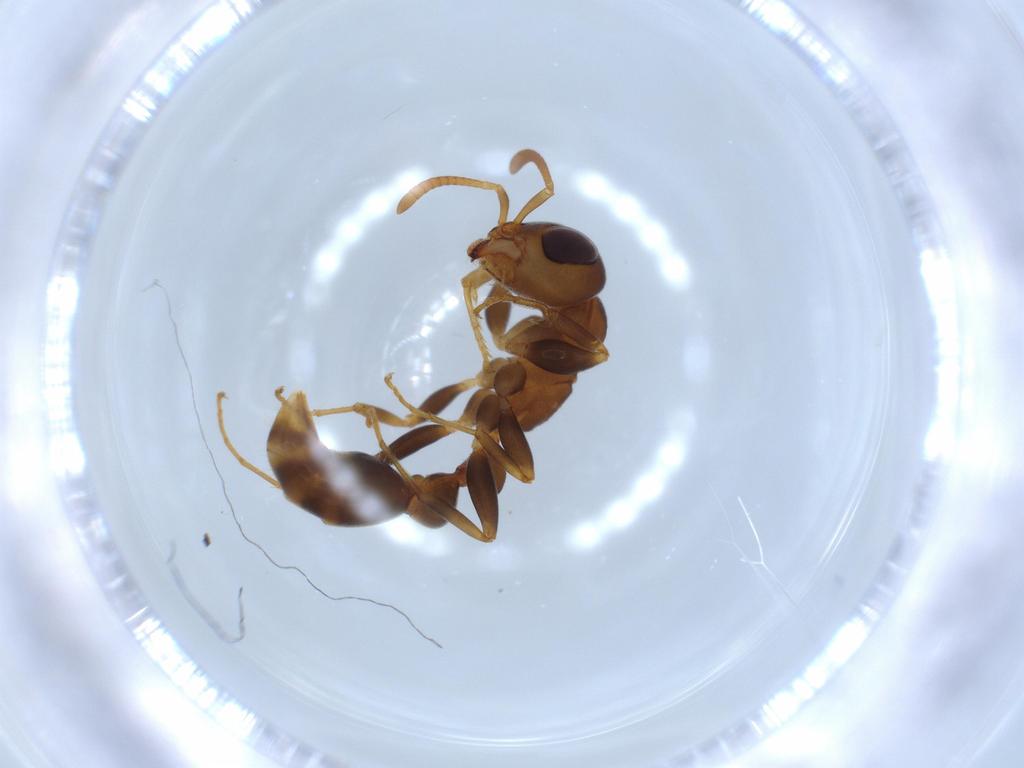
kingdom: Animalia
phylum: Arthropoda
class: Insecta
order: Hymenoptera
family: Formicidae
